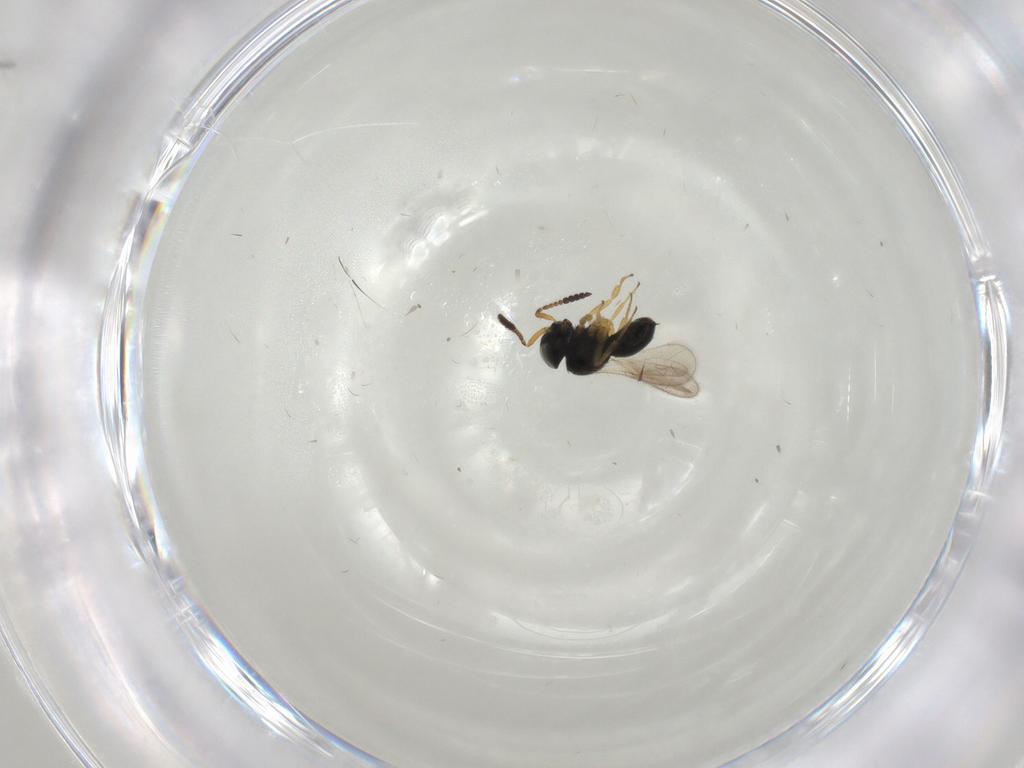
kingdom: Animalia
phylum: Arthropoda
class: Insecta
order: Hymenoptera
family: Scelionidae
